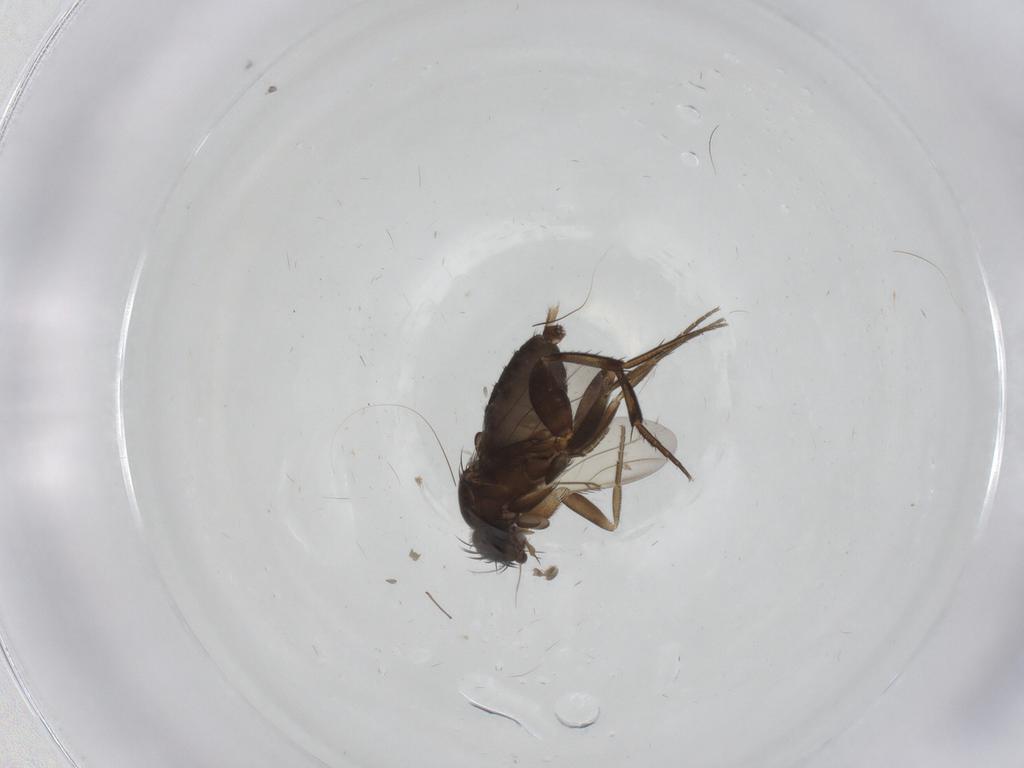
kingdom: Animalia
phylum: Arthropoda
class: Insecta
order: Diptera
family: Phoridae
